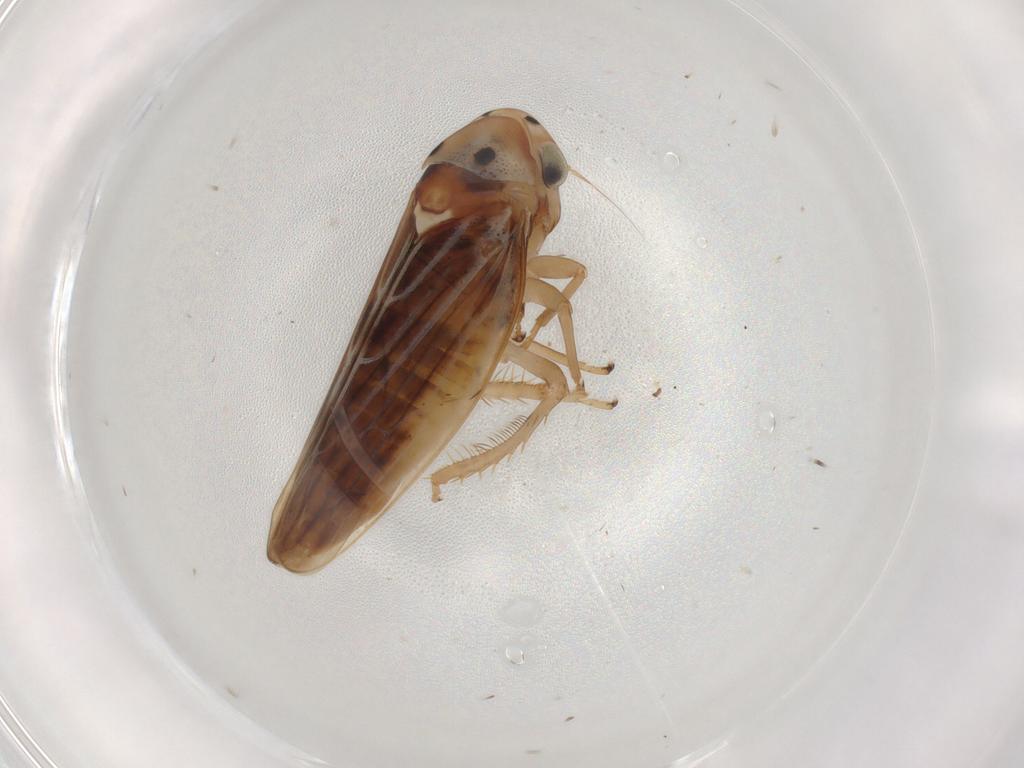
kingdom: Animalia
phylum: Arthropoda
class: Insecta
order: Hemiptera
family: Cicadellidae
